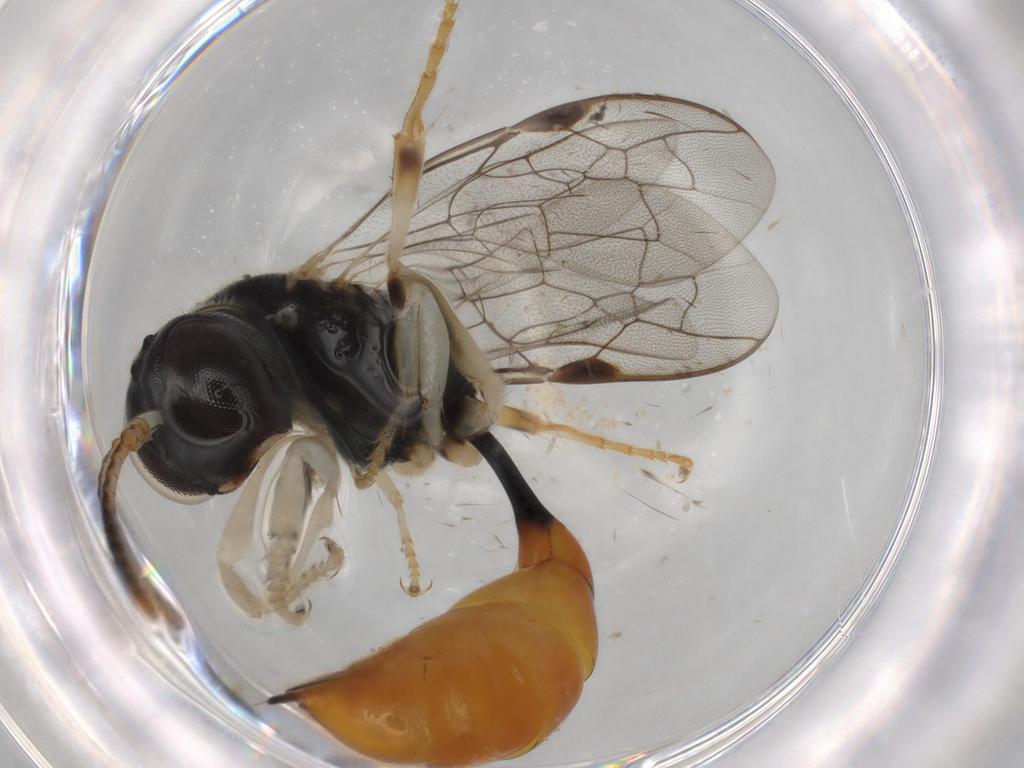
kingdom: Animalia
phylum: Arthropoda
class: Insecta
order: Hymenoptera
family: Crabronidae
